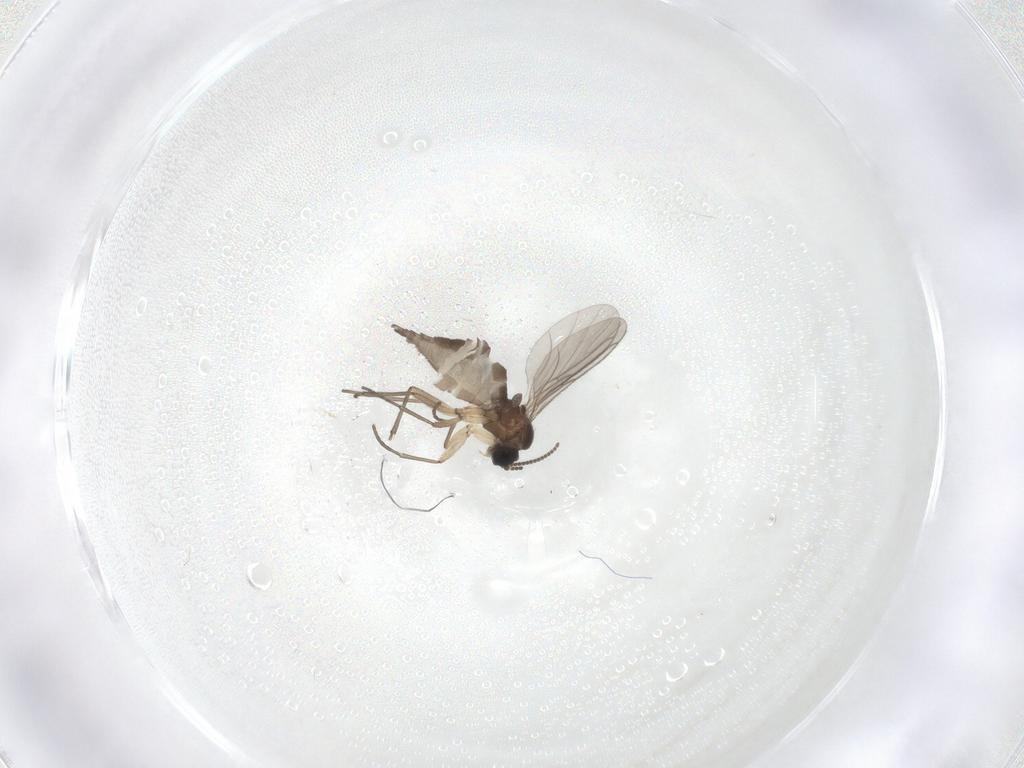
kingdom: Animalia
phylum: Arthropoda
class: Insecta
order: Diptera
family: Sciaridae
